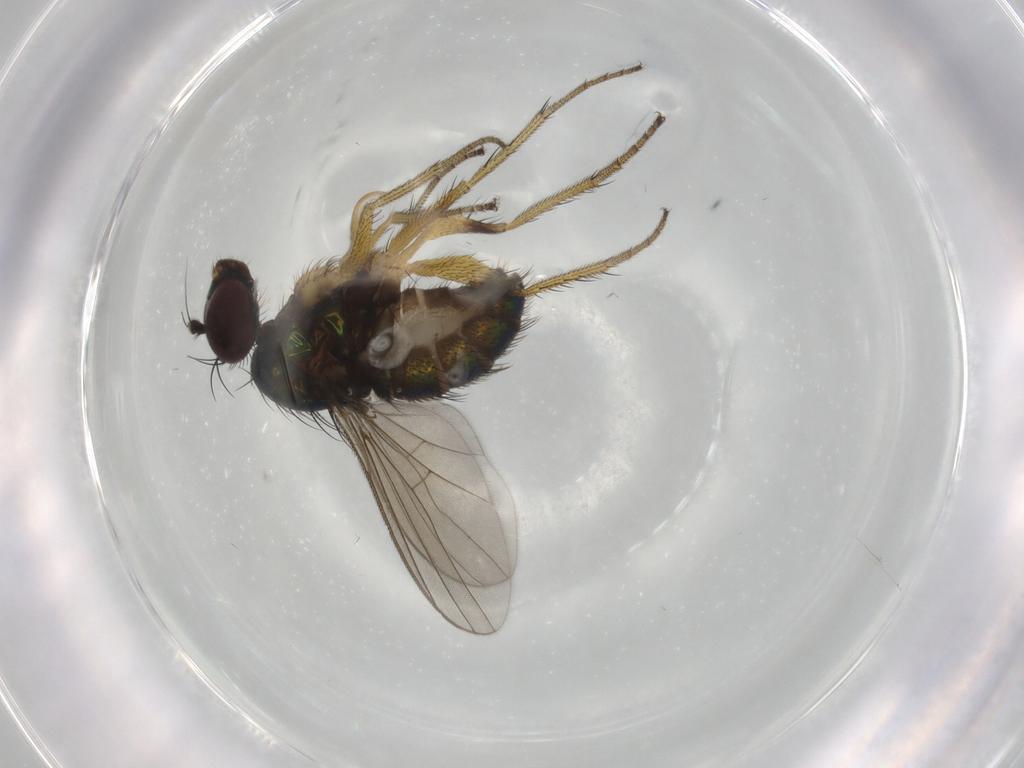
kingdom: Animalia
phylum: Arthropoda
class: Insecta
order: Diptera
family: Dolichopodidae
